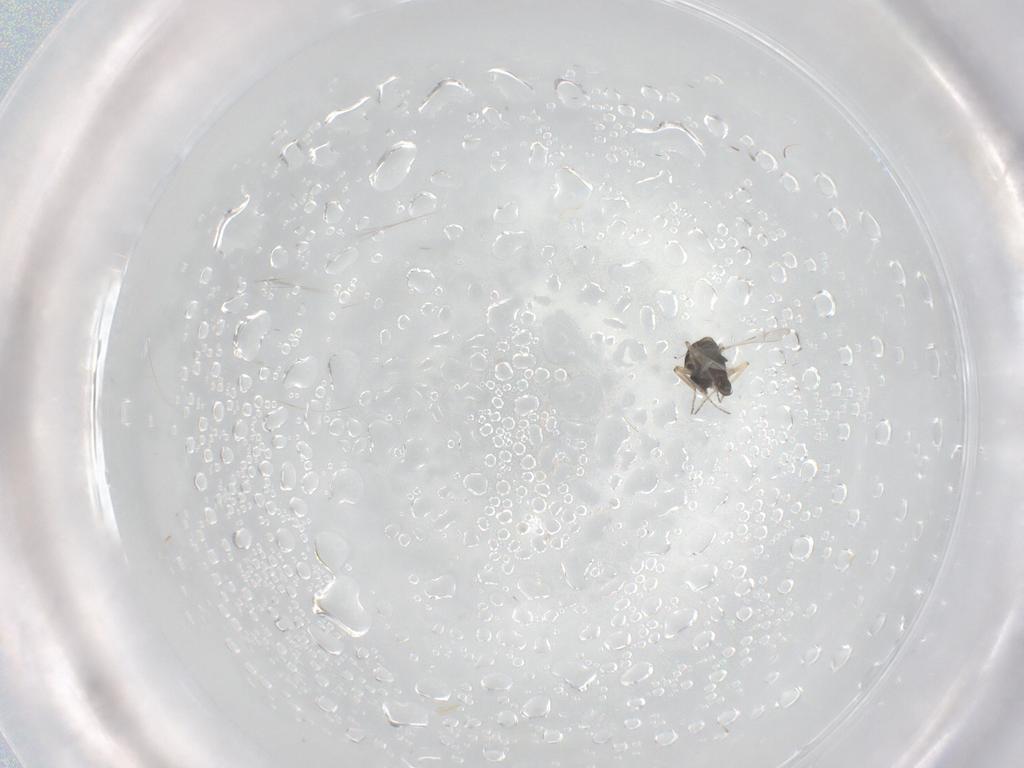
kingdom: Animalia
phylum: Arthropoda
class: Insecta
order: Diptera
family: Ceratopogonidae
